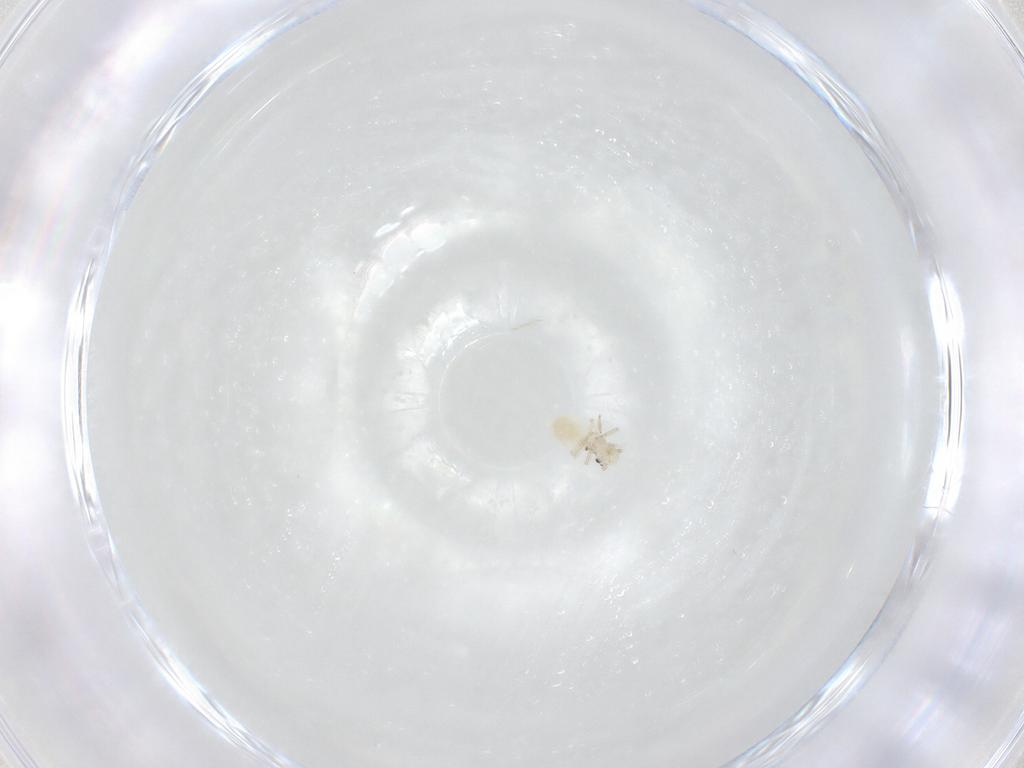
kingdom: Animalia
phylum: Arthropoda
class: Insecta
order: Psocodea
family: Caeciliusidae
